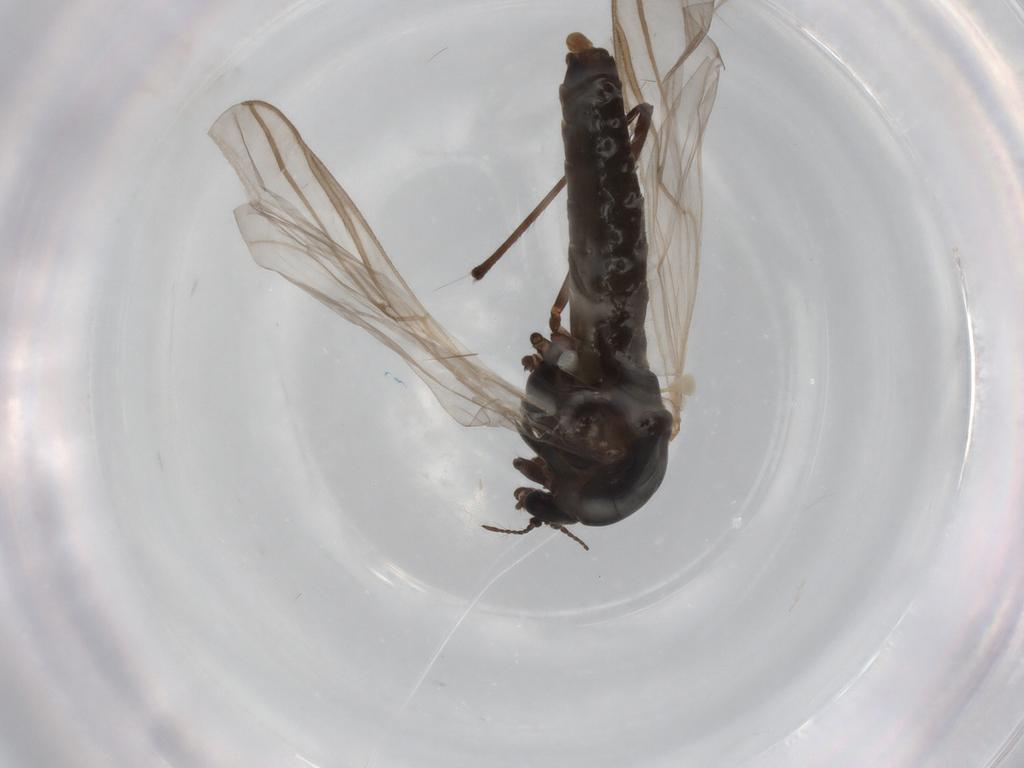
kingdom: Animalia
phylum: Arthropoda
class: Insecta
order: Diptera
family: Chironomidae
